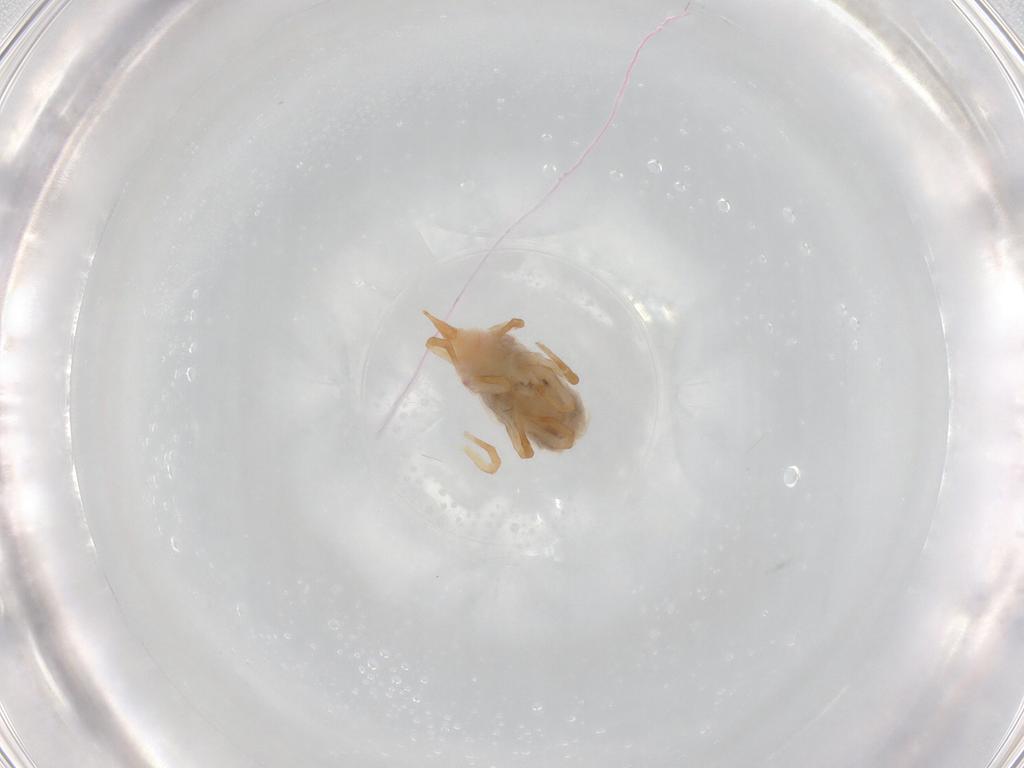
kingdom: Animalia
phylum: Arthropoda
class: Arachnida
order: Trombidiformes
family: Bdellidae
